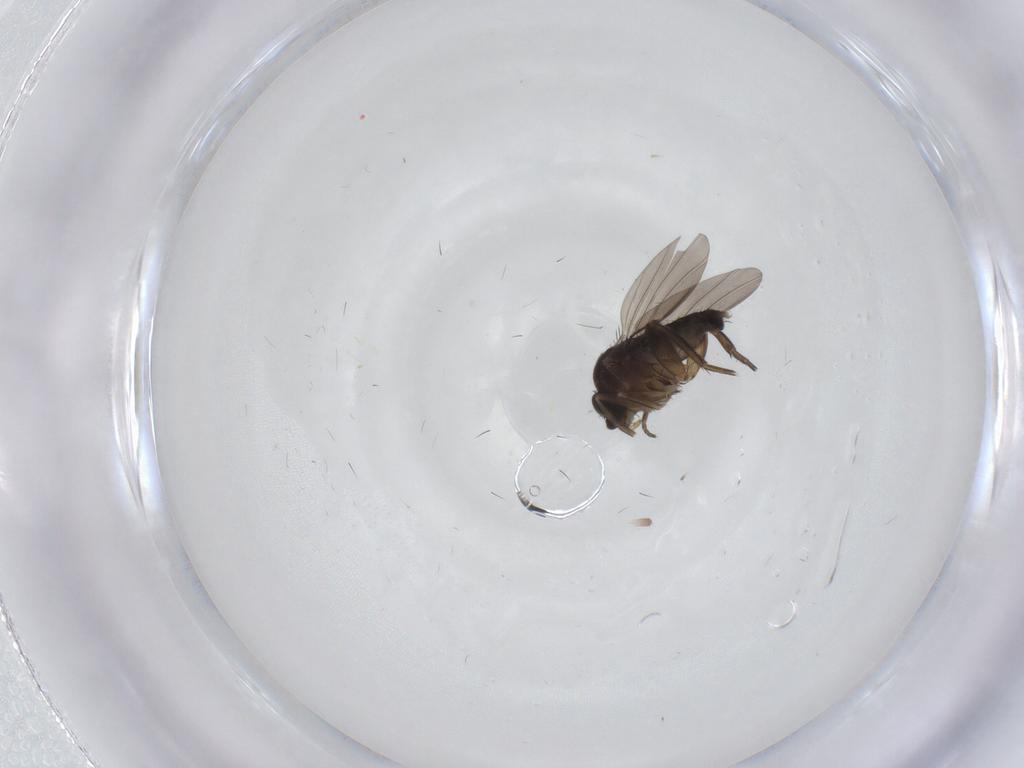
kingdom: Animalia
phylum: Arthropoda
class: Insecta
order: Diptera
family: Phoridae
